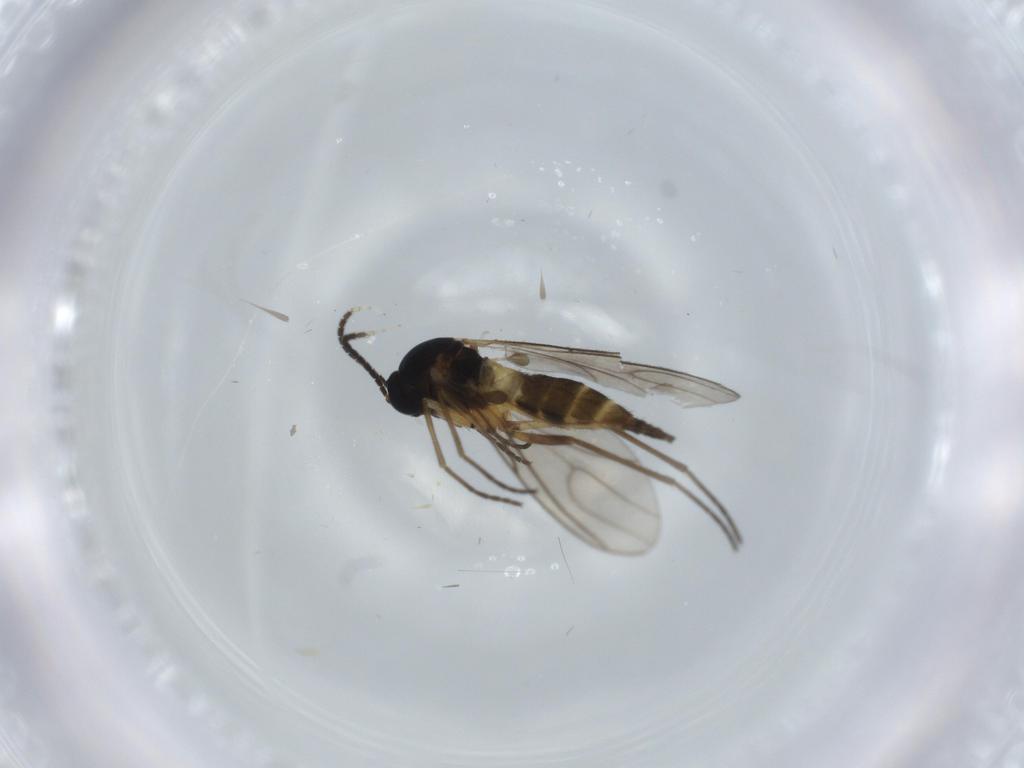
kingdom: Animalia
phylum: Arthropoda
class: Insecta
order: Diptera
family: Sciaridae
